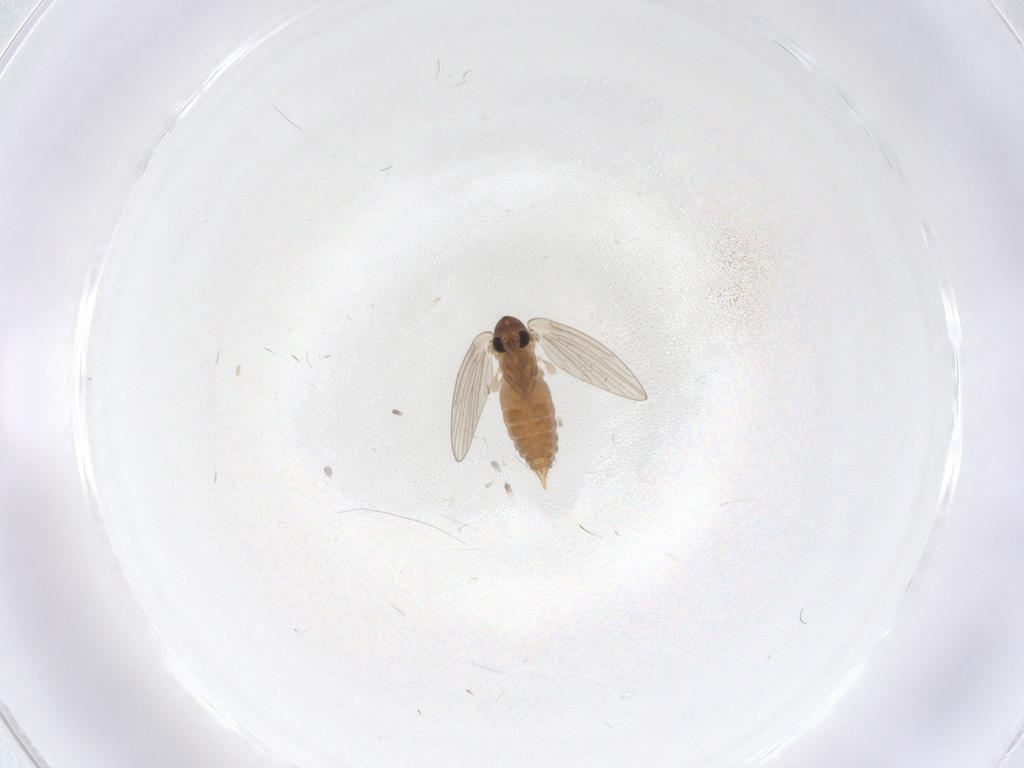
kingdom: Animalia
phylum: Arthropoda
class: Insecta
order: Diptera
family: Psychodidae
